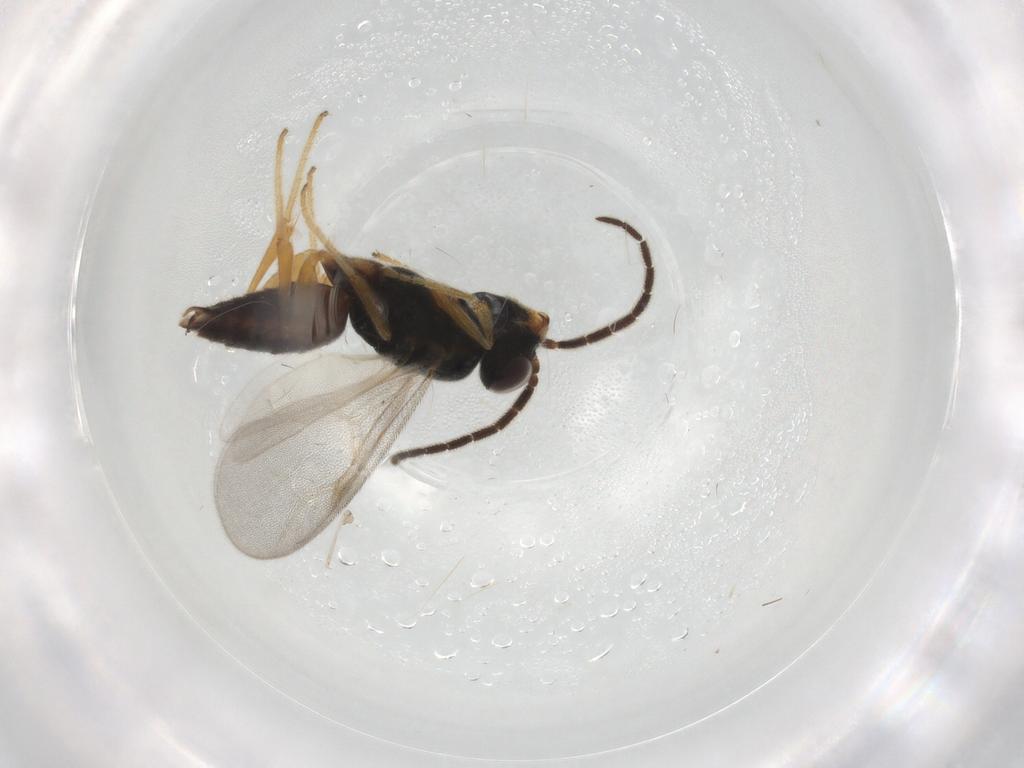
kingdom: Animalia
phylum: Arthropoda
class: Insecta
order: Hymenoptera
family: Dryinidae
